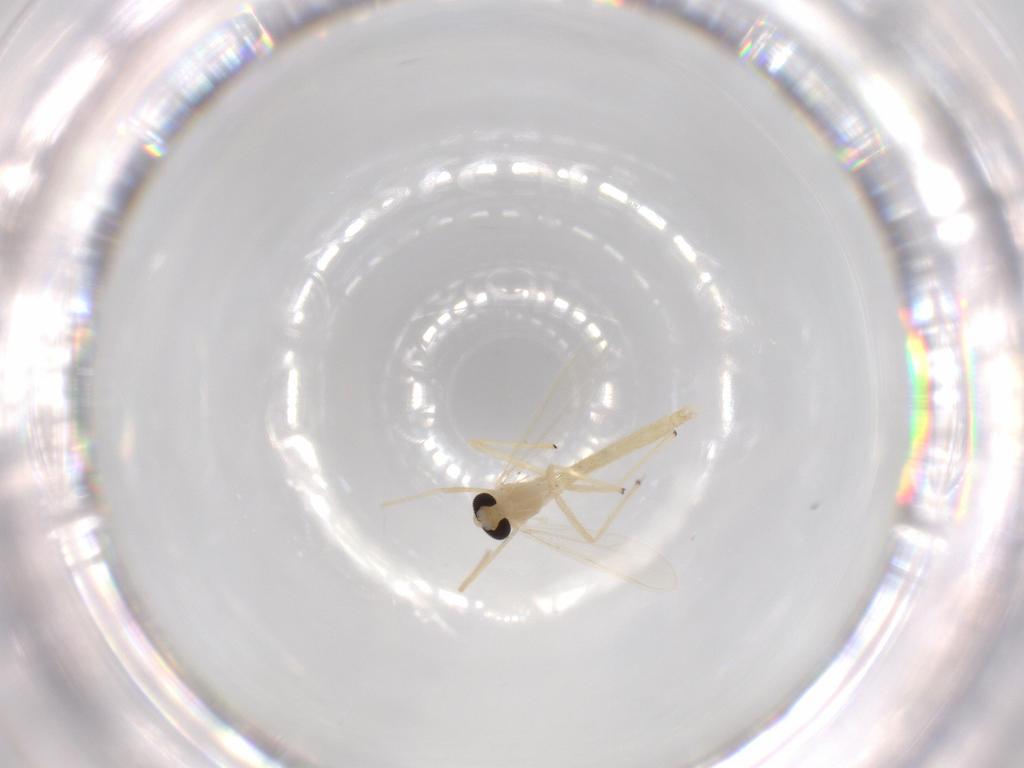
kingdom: Animalia
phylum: Arthropoda
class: Insecta
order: Diptera
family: Chironomidae
